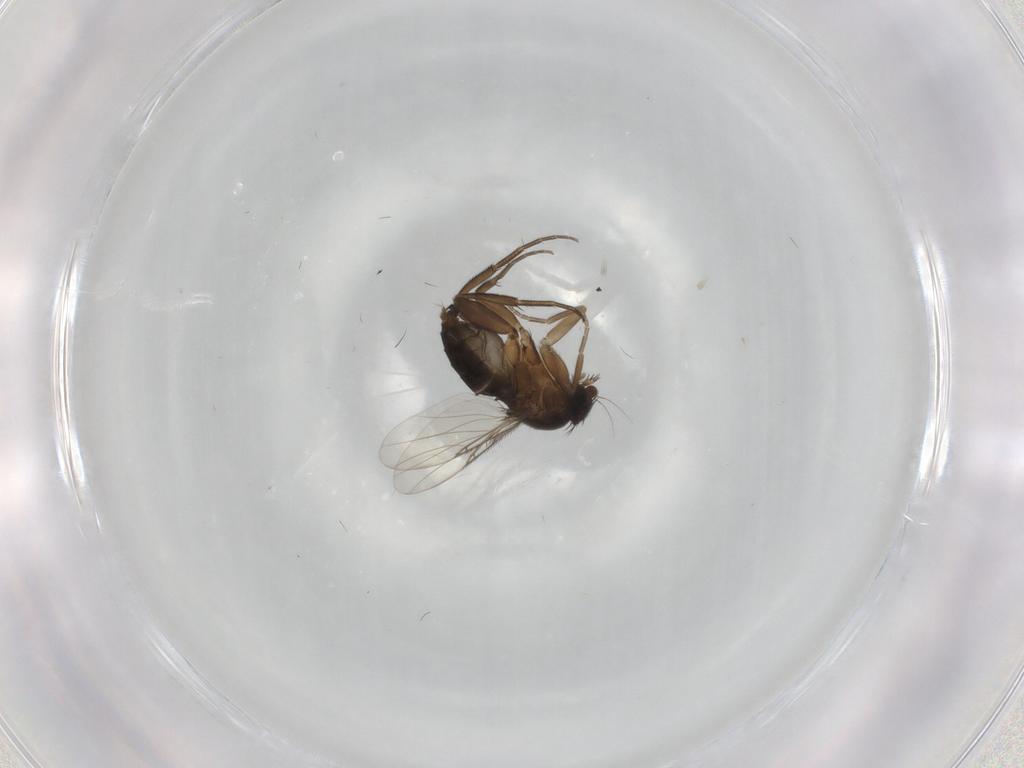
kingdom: Animalia
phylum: Arthropoda
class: Insecta
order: Diptera
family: Phoridae
